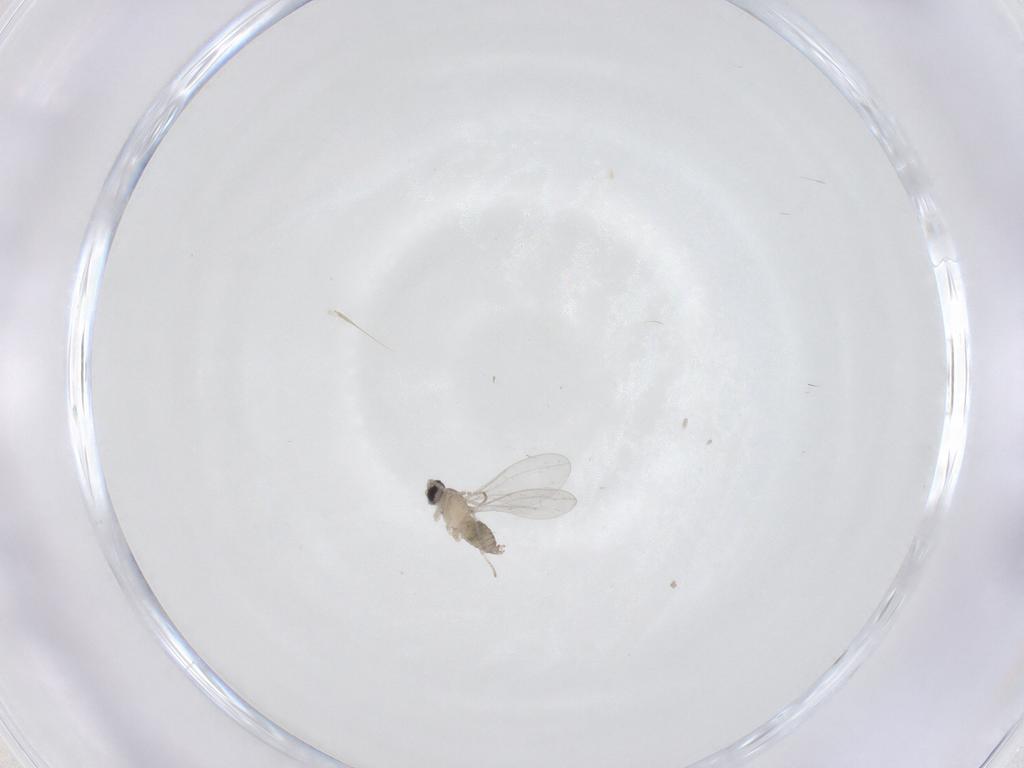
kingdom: Animalia
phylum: Arthropoda
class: Insecta
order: Diptera
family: Cecidomyiidae
